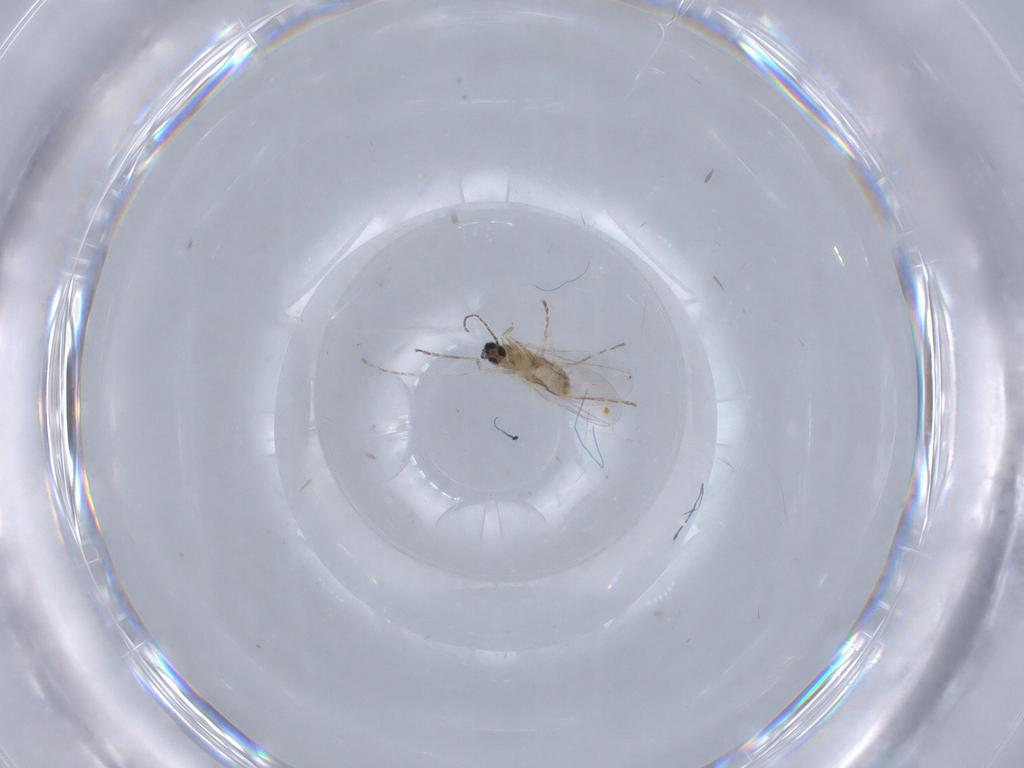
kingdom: Animalia
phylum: Arthropoda
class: Insecta
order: Diptera
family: Cecidomyiidae
